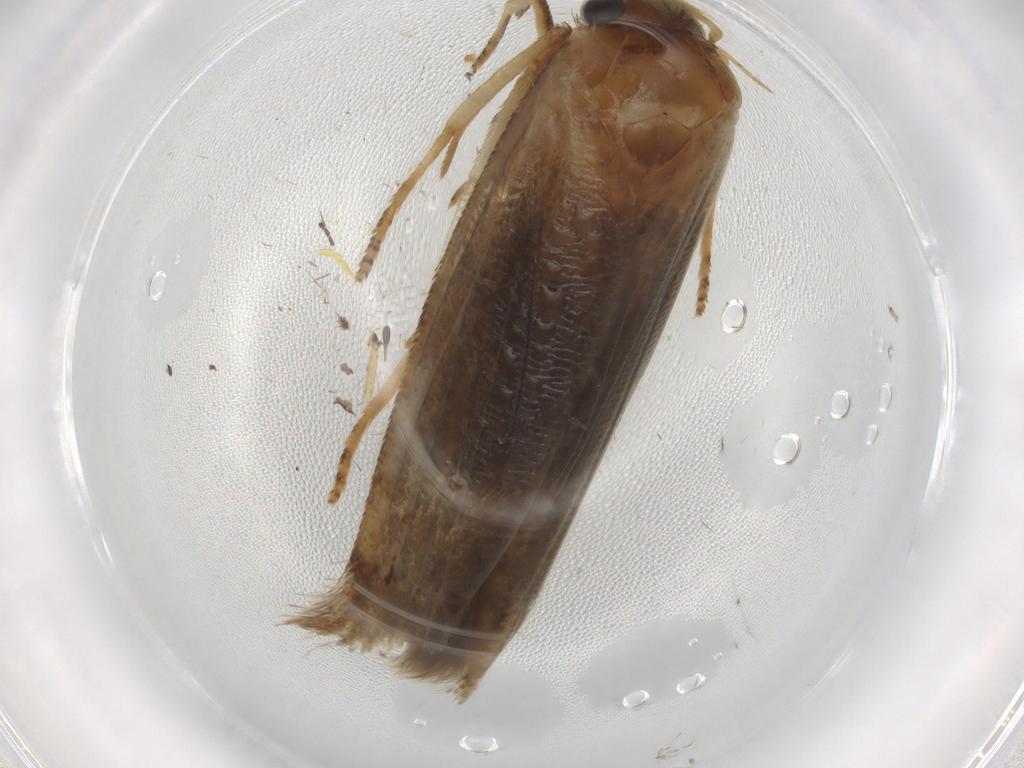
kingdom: Animalia
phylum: Arthropoda
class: Insecta
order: Lepidoptera
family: Blastobasidae
